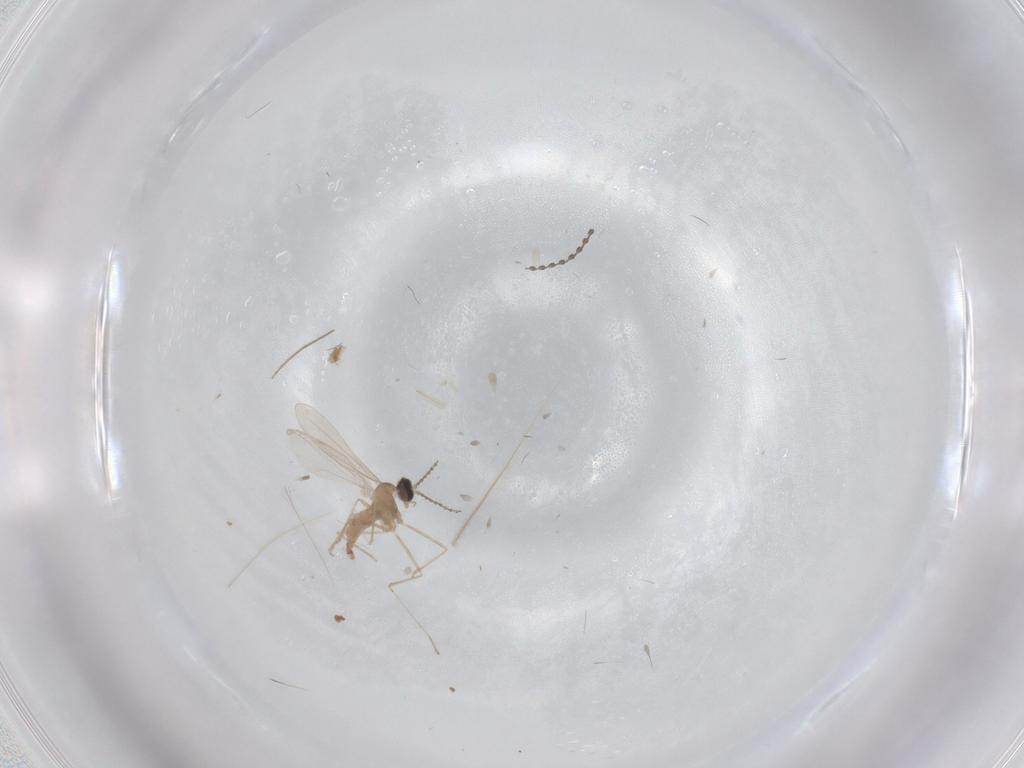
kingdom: Animalia
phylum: Arthropoda
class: Insecta
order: Diptera
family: Cecidomyiidae
